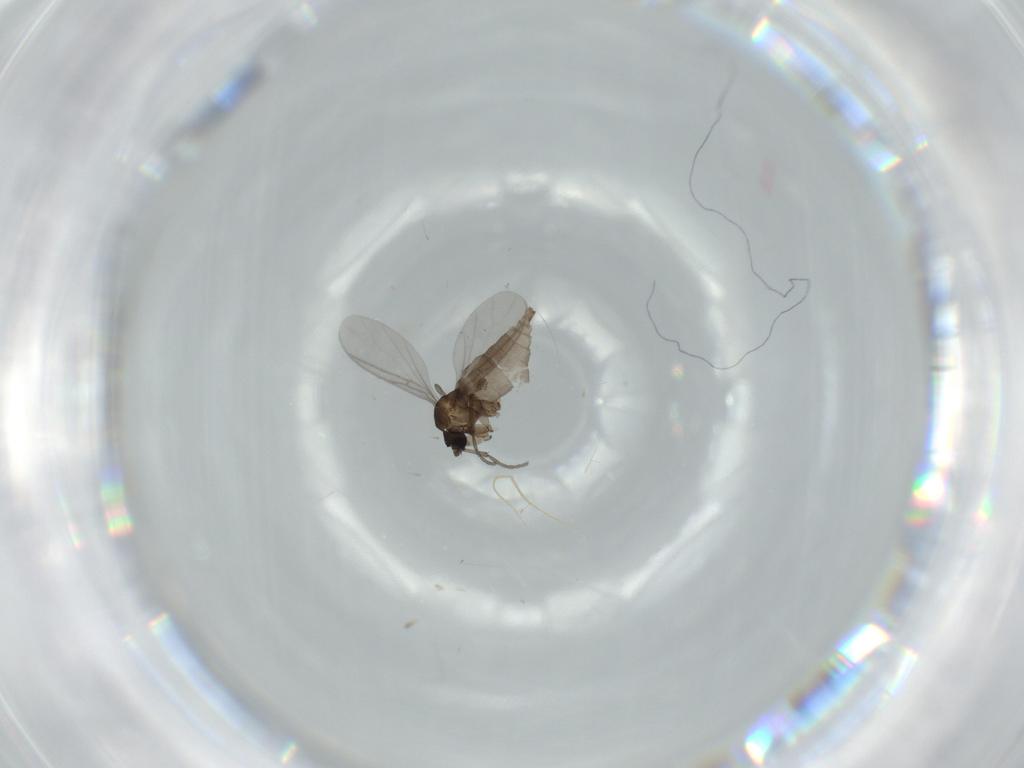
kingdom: Animalia
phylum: Arthropoda
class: Insecta
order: Diptera
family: Sciaridae
